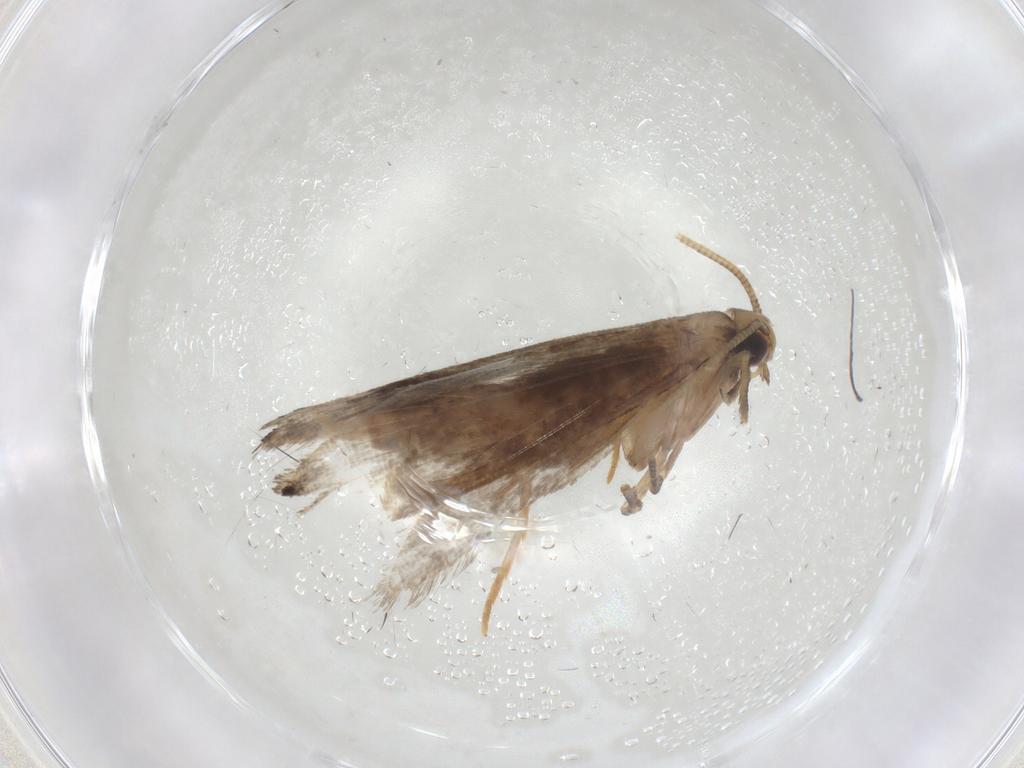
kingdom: Animalia
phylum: Arthropoda
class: Insecta
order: Lepidoptera
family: Tineidae
